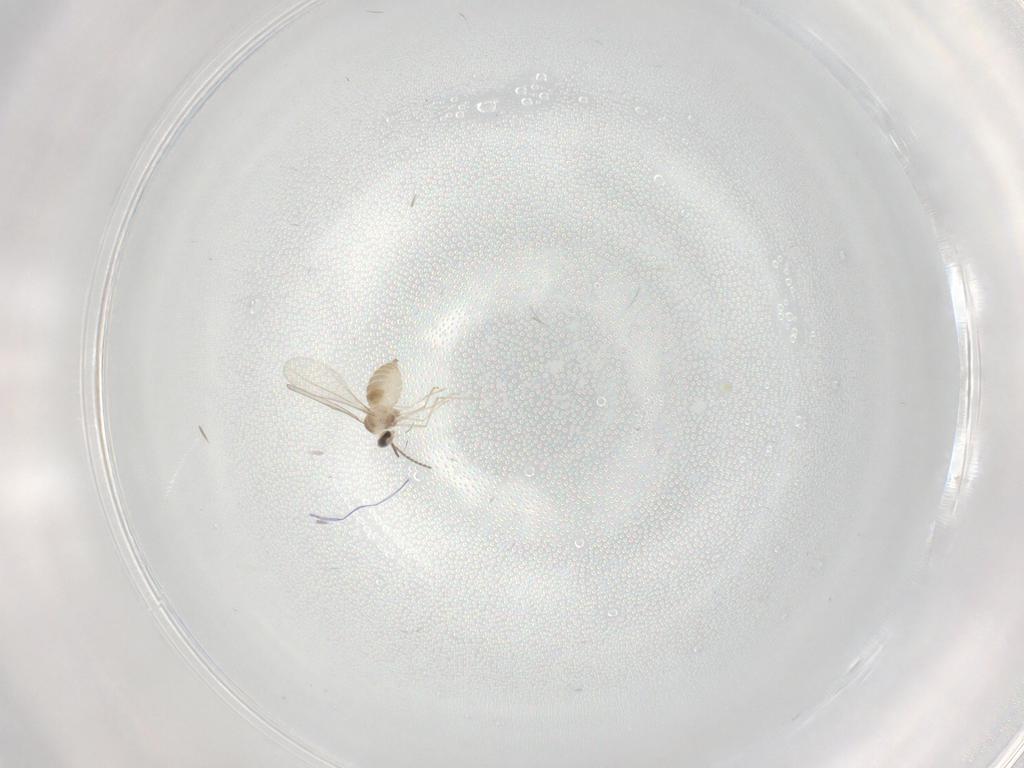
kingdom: Animalia
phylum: Arthropoda
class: Insecta
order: Diptera
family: Cecidomyiidae
